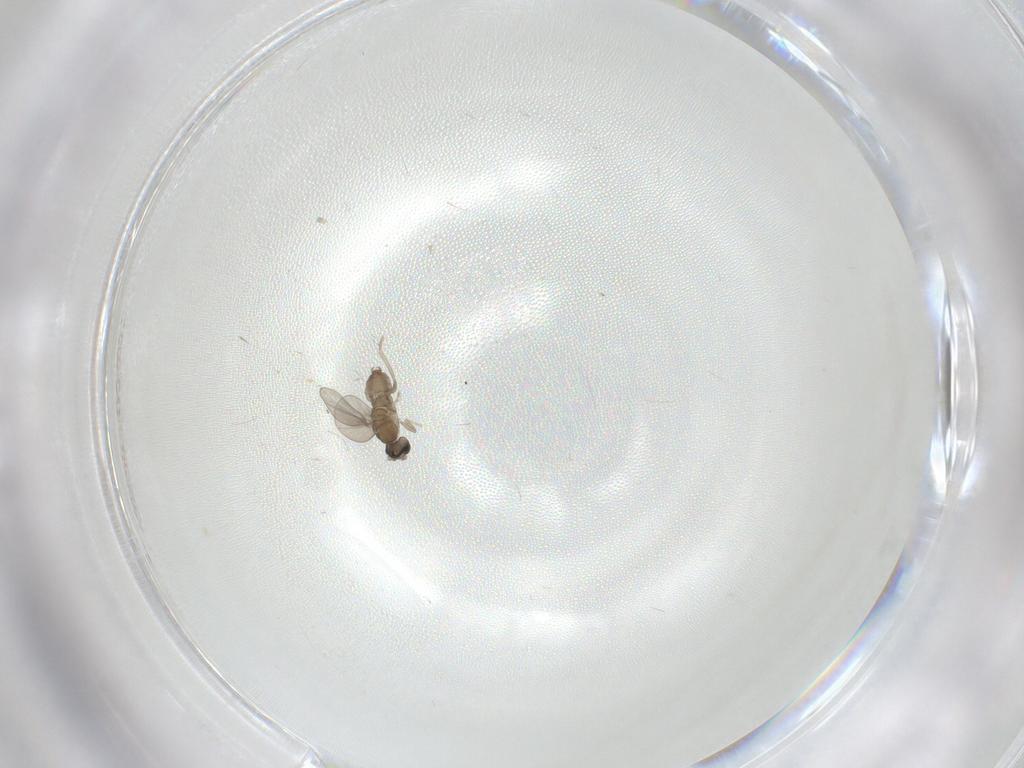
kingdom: Animalia
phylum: Arthropoda
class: Insecta
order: Diptera
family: Cecidomyiidae
